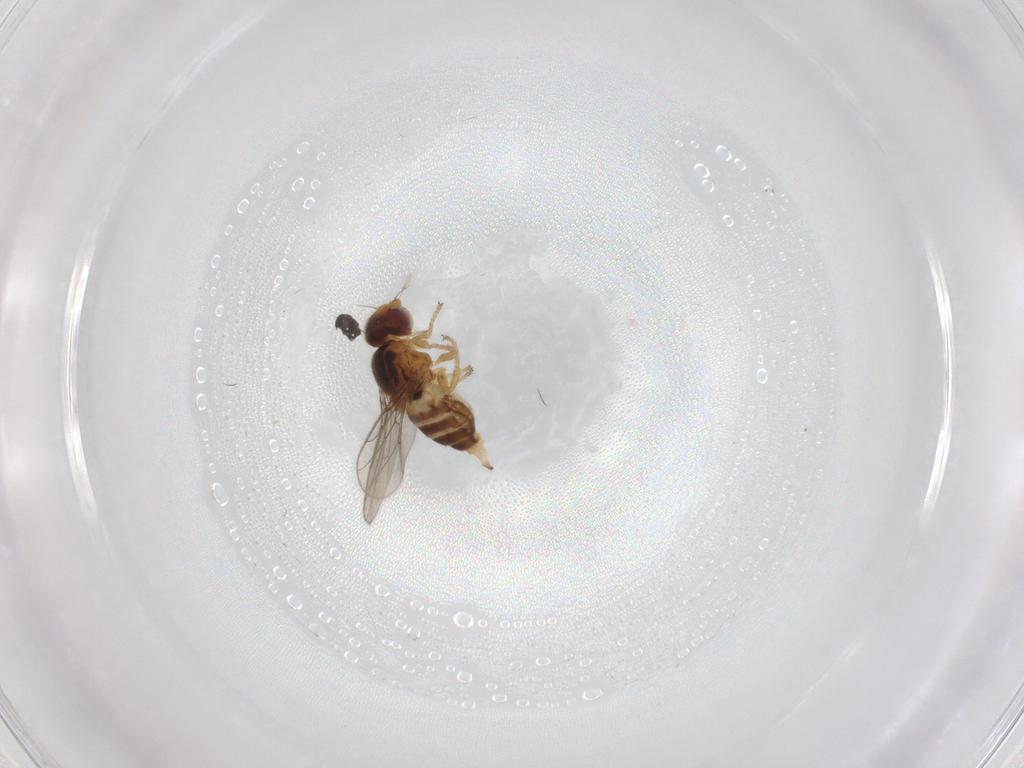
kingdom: Animalia
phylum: Arthropoda
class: Insecta
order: Diptera
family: Chloropidae
